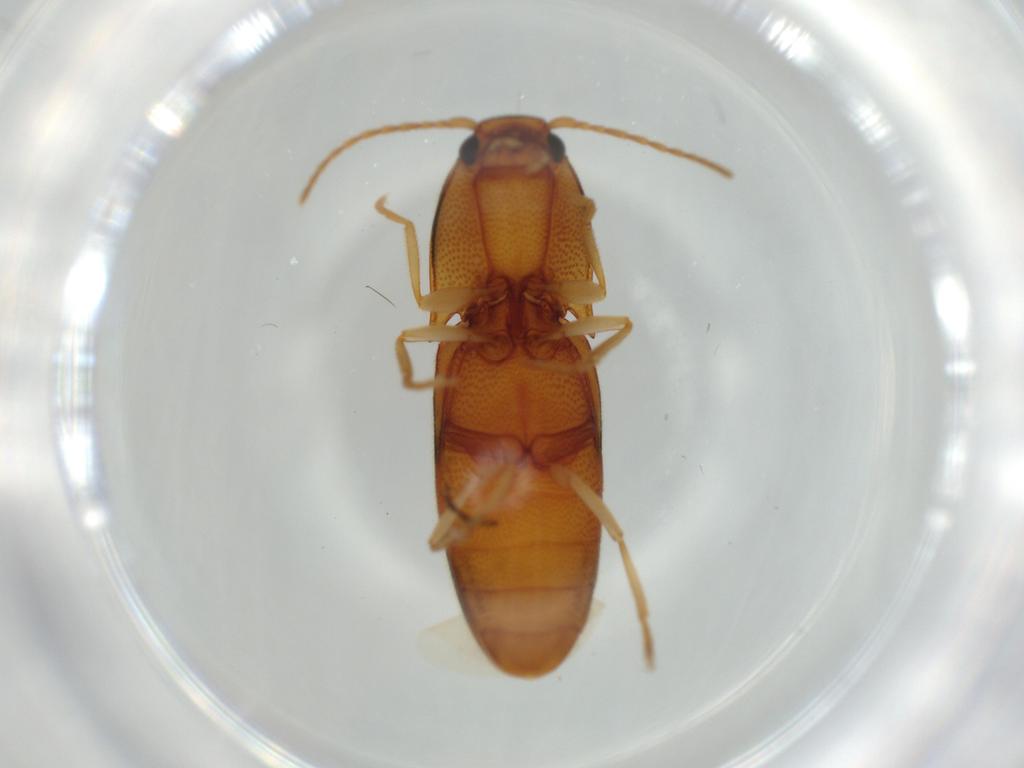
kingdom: Animalia
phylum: Arthropoda
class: Insecta
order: Coleoptera
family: Elateridae
